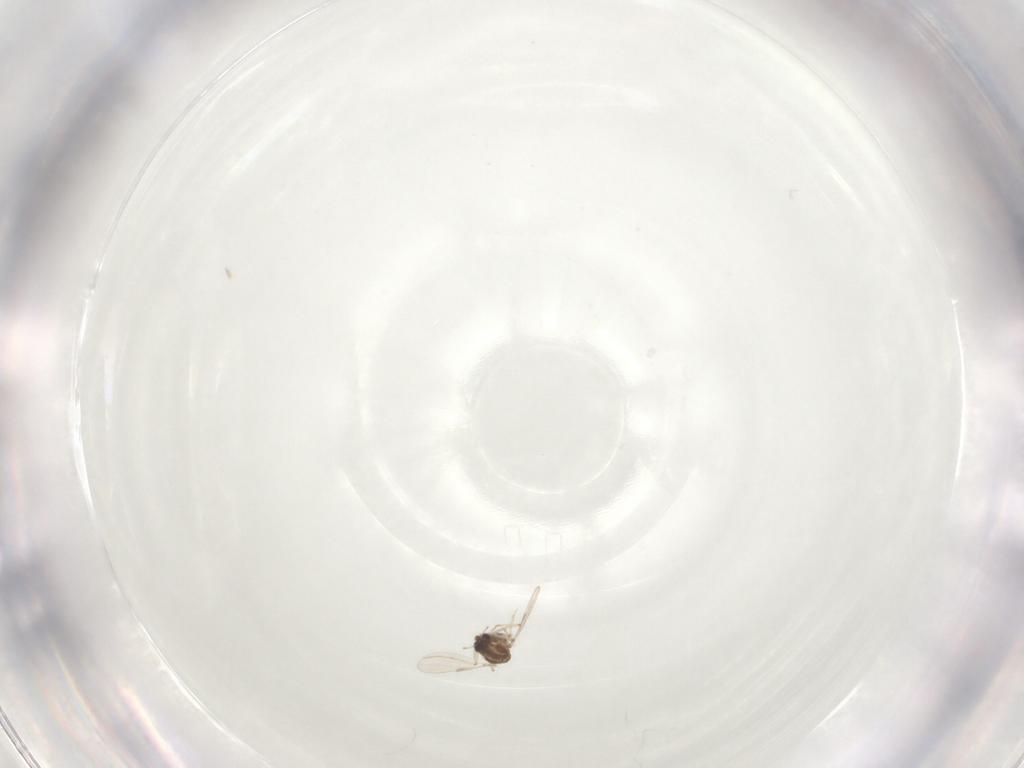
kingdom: Animalia
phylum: Arthropoda
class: Insecta
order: Diptera
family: Chironomidae
